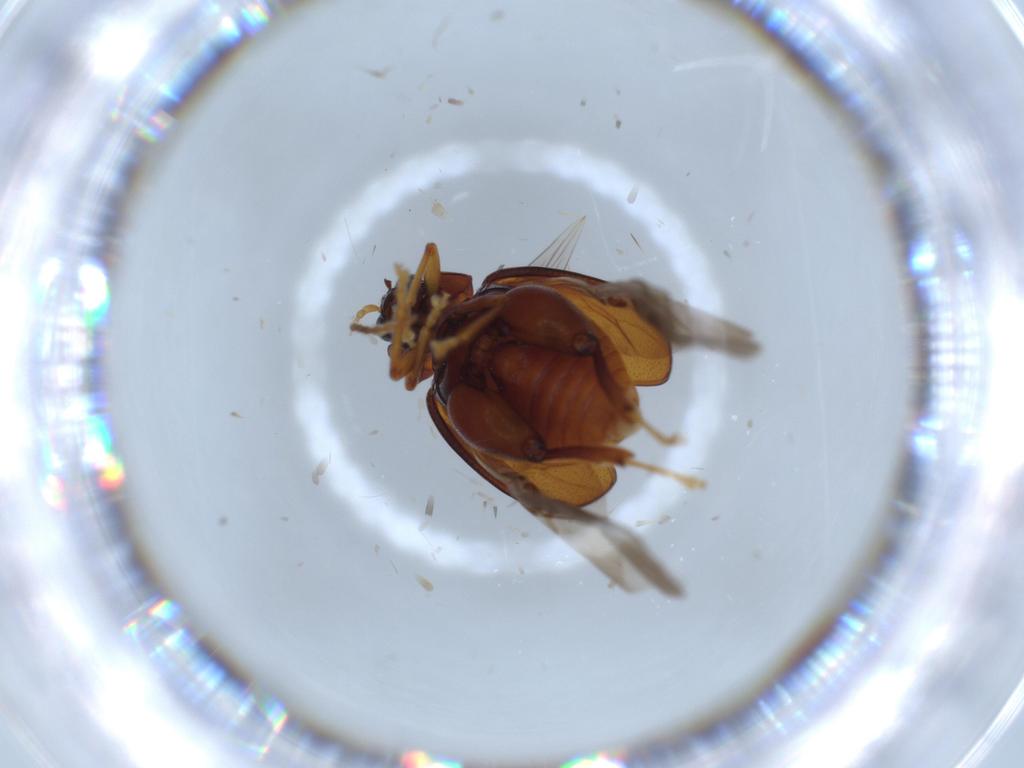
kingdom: Animalia
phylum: Arthropoda
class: Insecta
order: Coleoptera
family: Chrysomelidae
